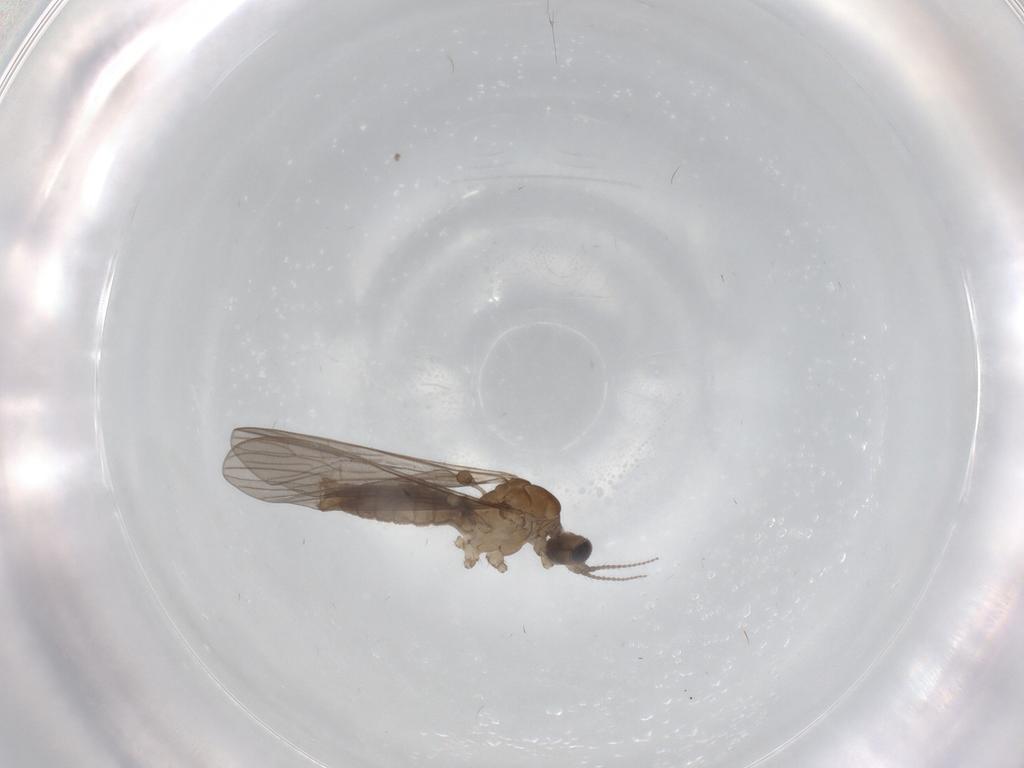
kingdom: Animalia
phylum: Arthropoda
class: Insecta
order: Diptera
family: Limoniidae
